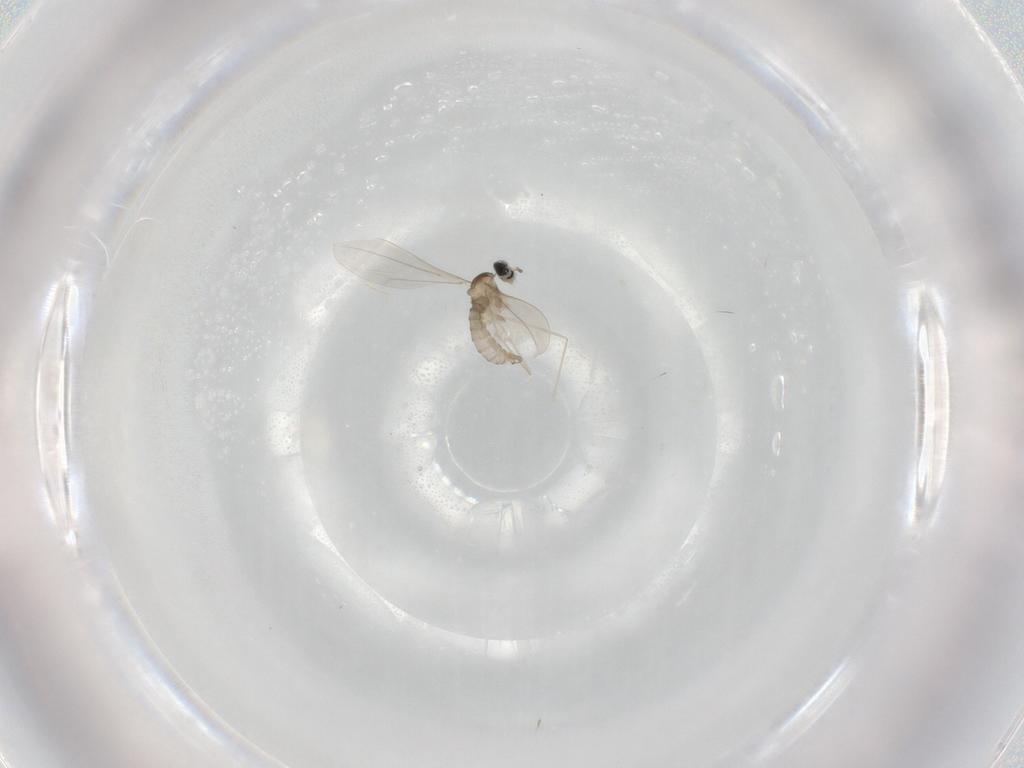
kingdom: Animalia
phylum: Arthropoda
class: Insecta
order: Diptera
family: Cecidomyiidae
